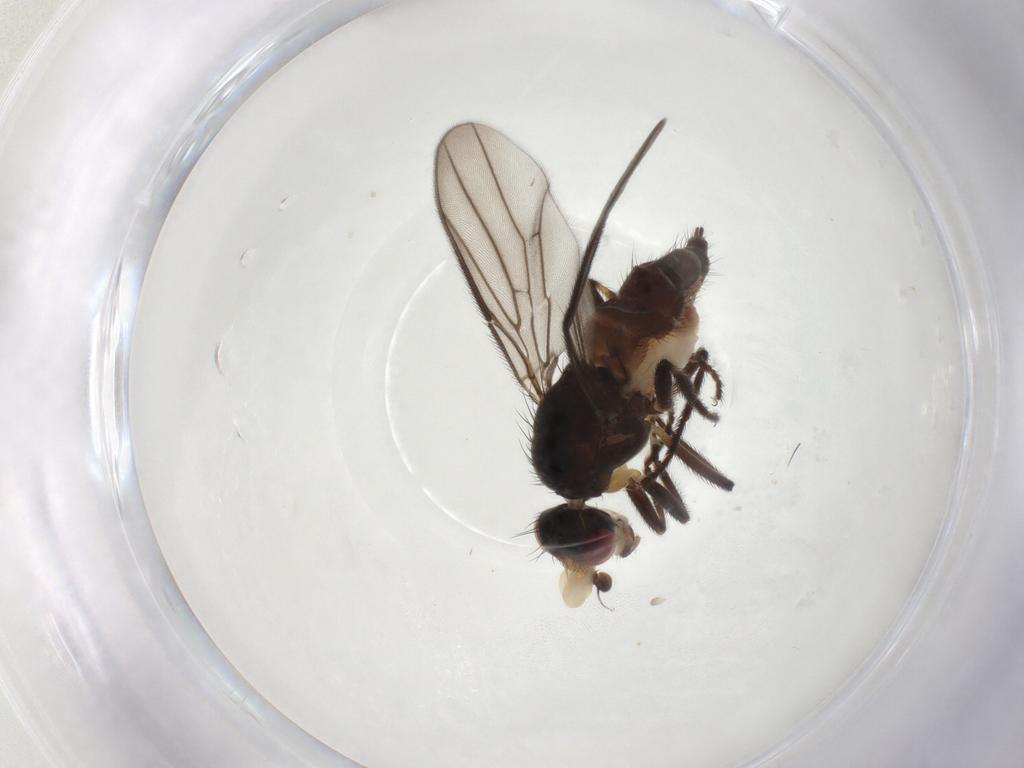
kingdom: Animalia
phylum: Arthropoda
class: Insecta
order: Diptera
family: Chloropidae
